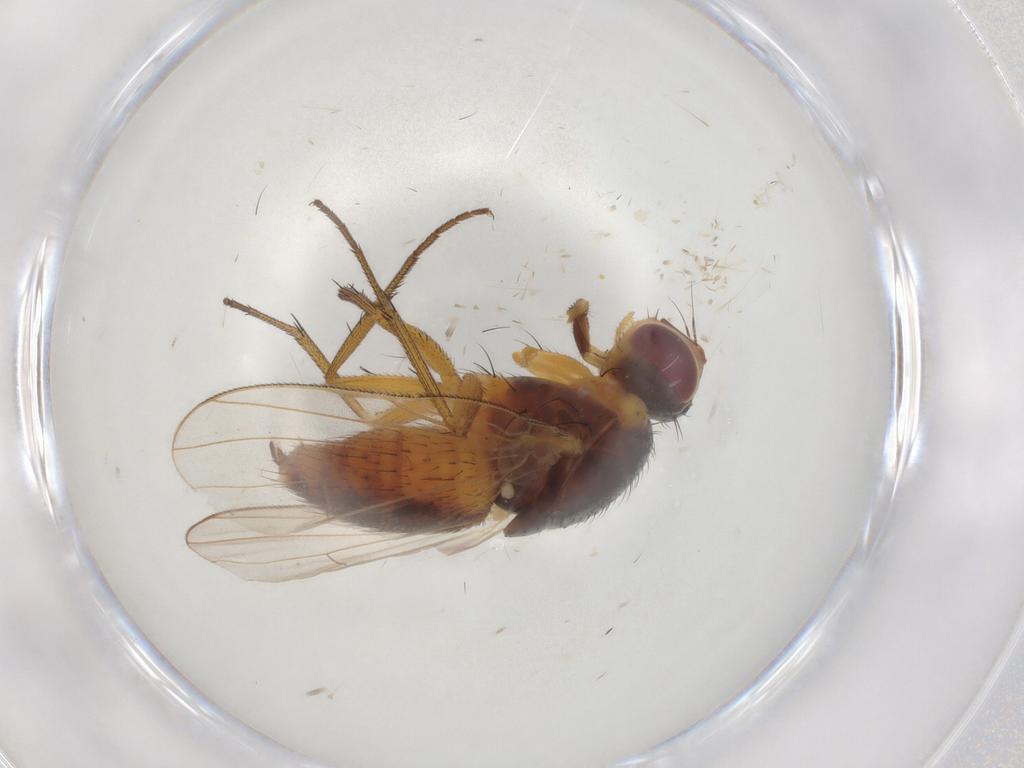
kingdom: Animalia
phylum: Arthropoda
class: Insecta
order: Diptera
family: Muscidae
